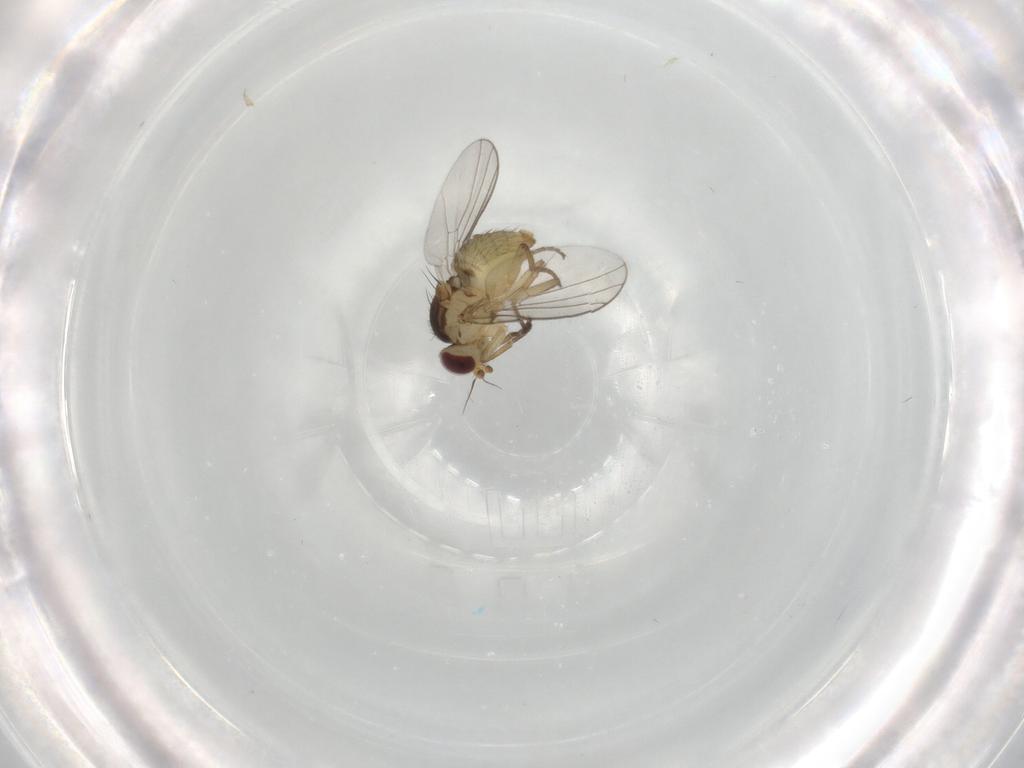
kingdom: Animalia
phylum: Arthropoda
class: Insecta
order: Diptera
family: Agromyzidae
